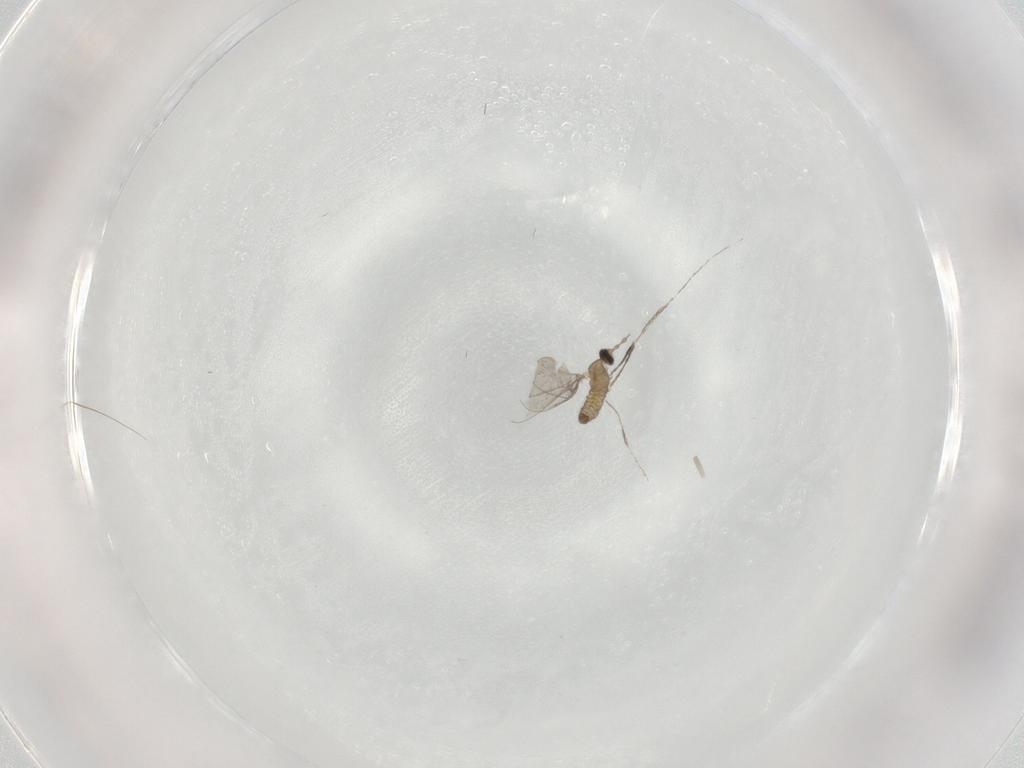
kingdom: Animalia
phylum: Arthropoda
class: Insecta
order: Diptera
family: Cecidomyiidae
